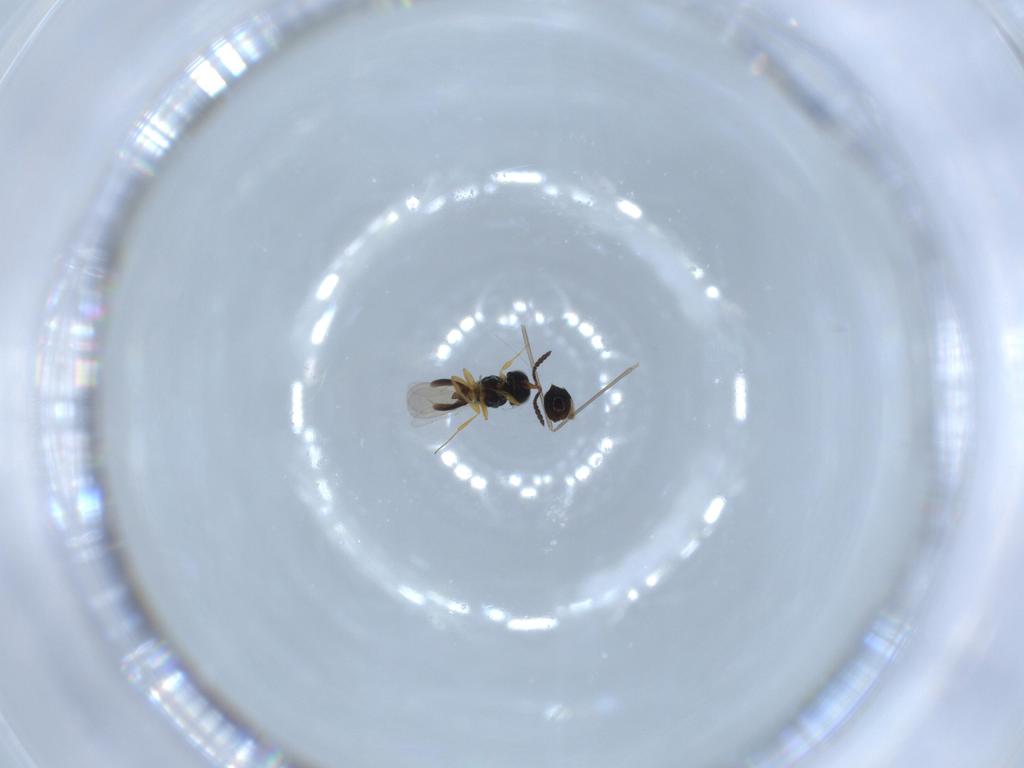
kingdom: Animalia
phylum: Arthropoda
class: Insecta
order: Hymenoptera
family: Scelionidae
